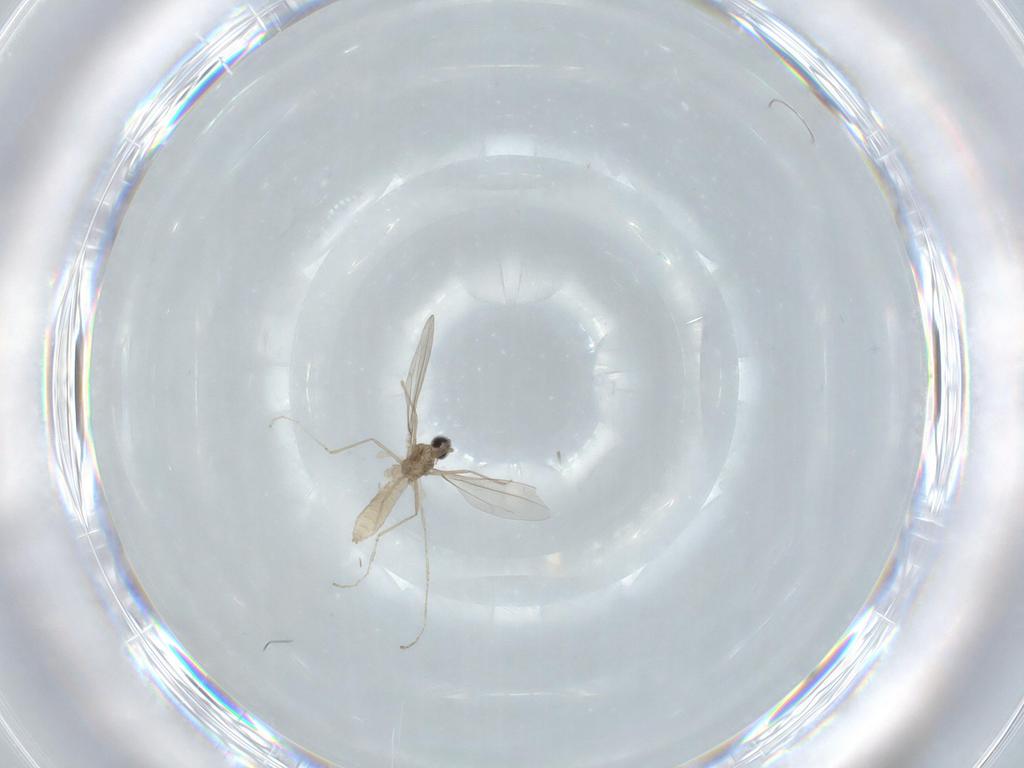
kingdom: Animalia
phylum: Arthropoda
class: Insecta
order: Diptera
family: Cecidomyiidae
